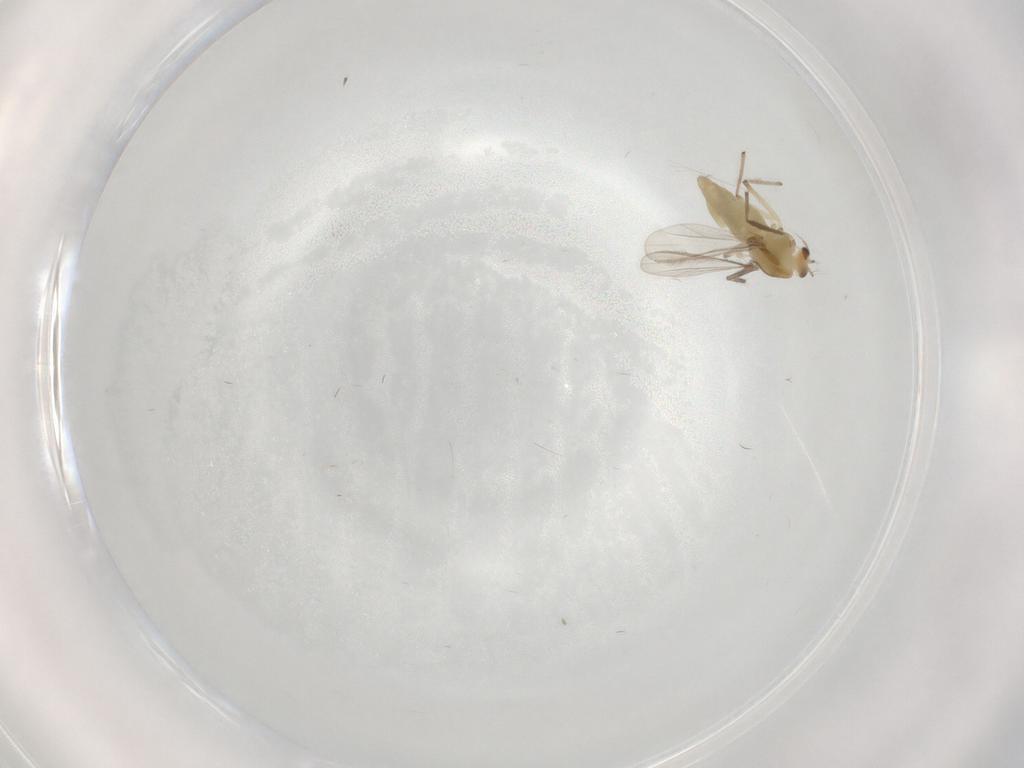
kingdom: Animalia
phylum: Arthropoda
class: Insecta
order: Diptera
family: Chironomidae
